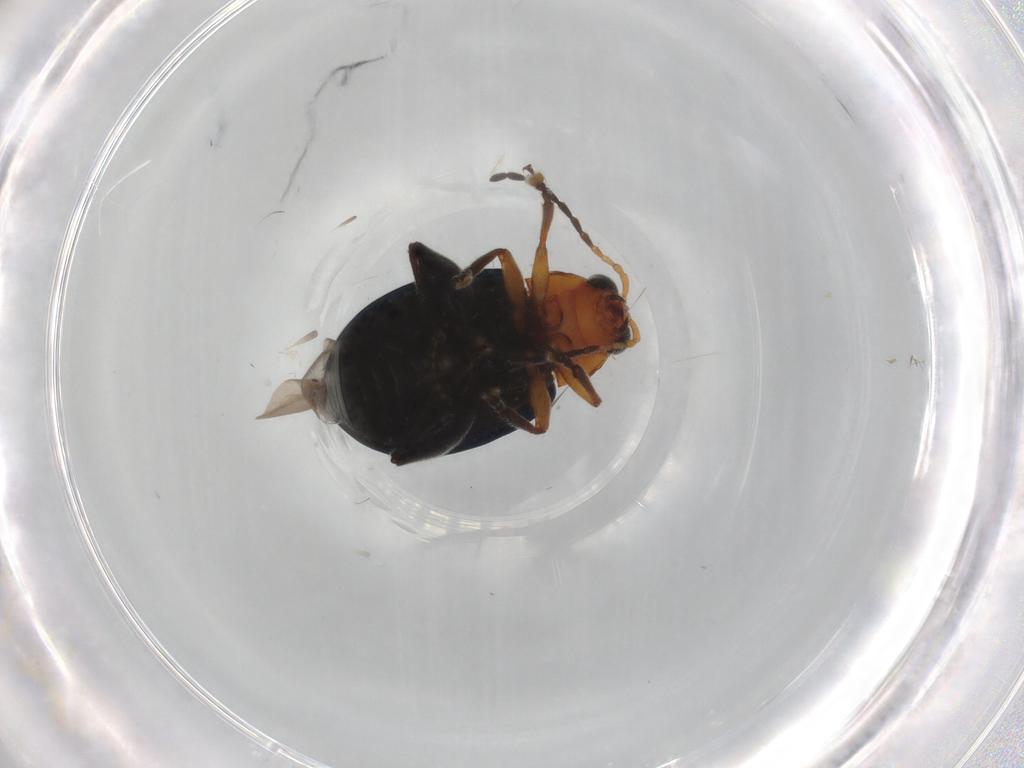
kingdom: Animalia
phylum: Arthropoda
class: Insecta
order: Coleoptera
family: Chrysomelidae
